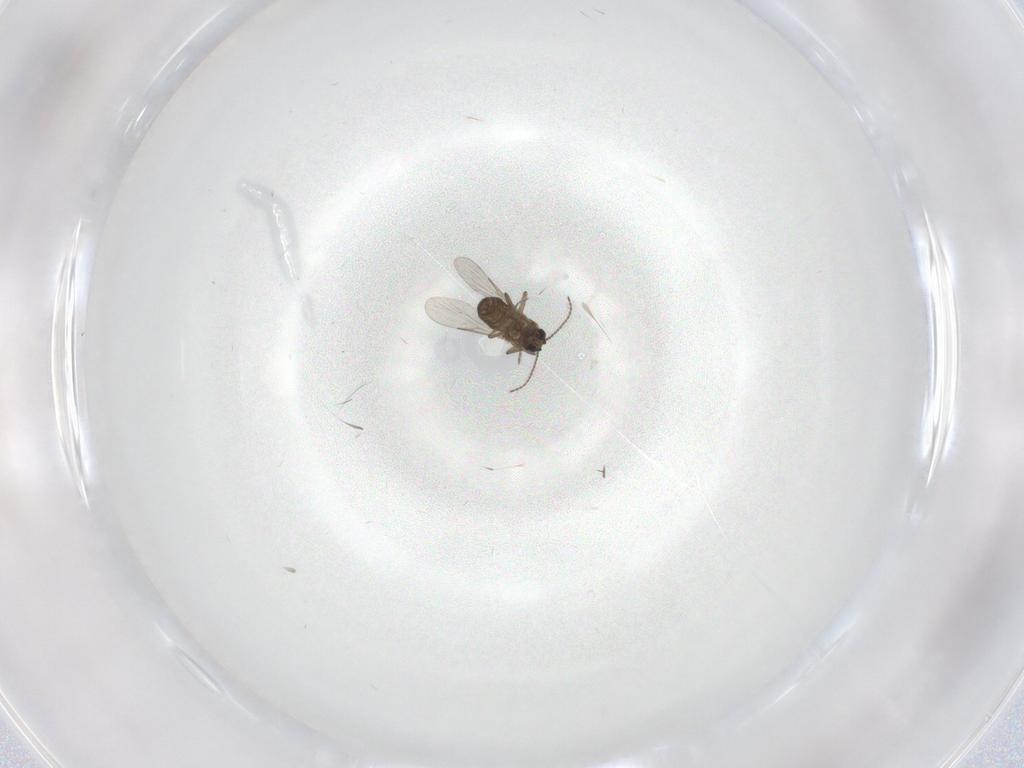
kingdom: Animalia
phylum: Arthropoda
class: Insecta
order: Diptera
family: Ceratopogonidae
